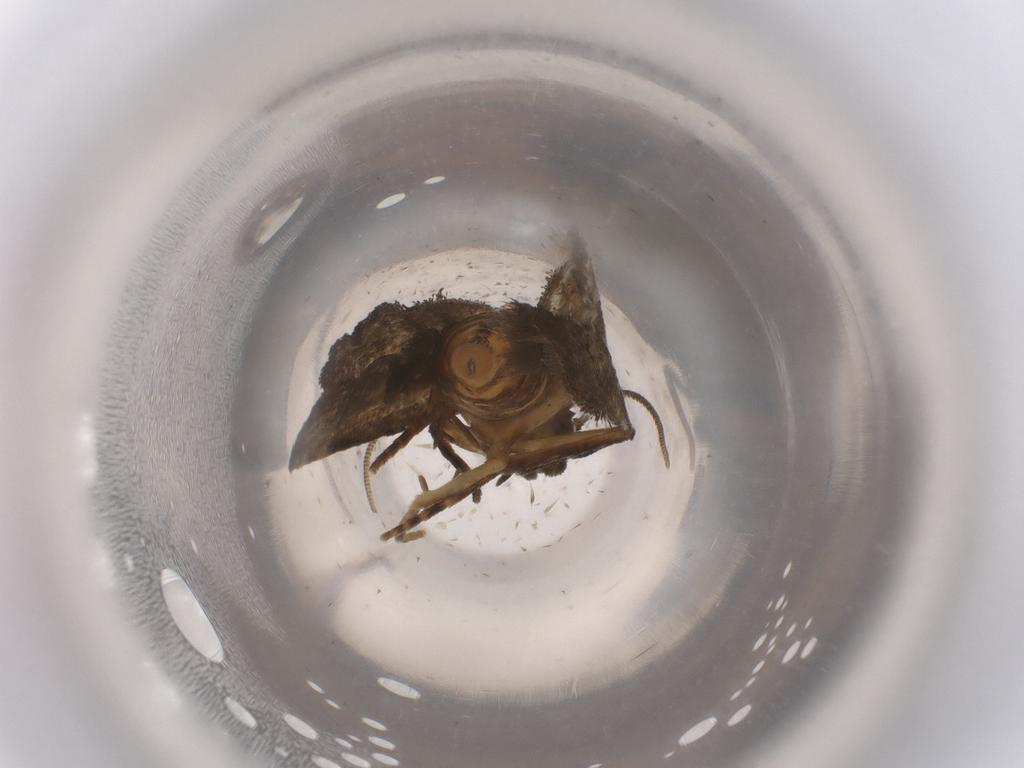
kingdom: Animalia
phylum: Arthropoda
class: Insecta
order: Lepidoptera
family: Erebidae
